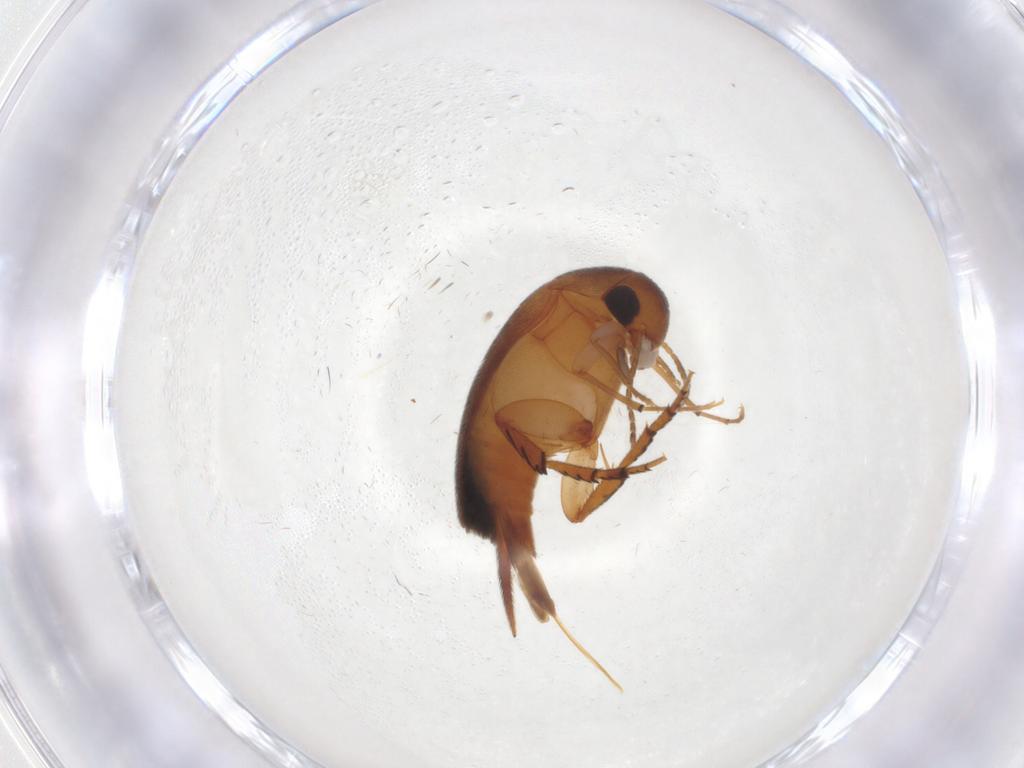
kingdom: Animalia
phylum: Arthropoda
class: Insecta
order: Coleoptera
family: Mordellidae
